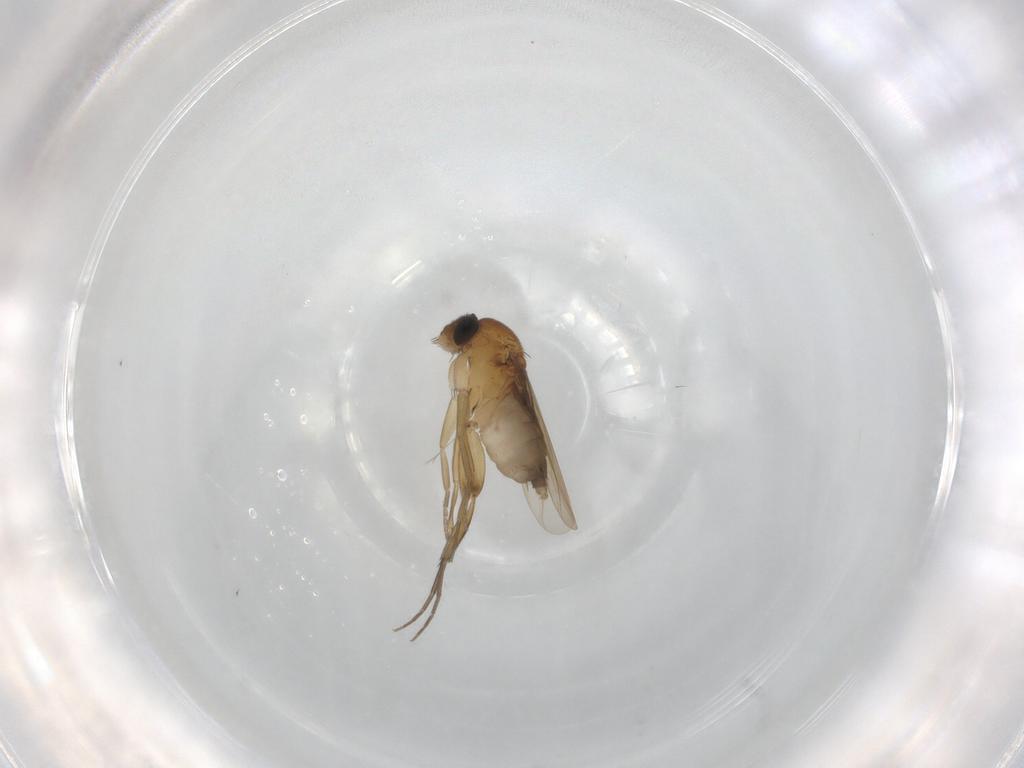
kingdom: Animalia
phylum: Arthropoda
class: Insecta
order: Diptera
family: Phoridae
